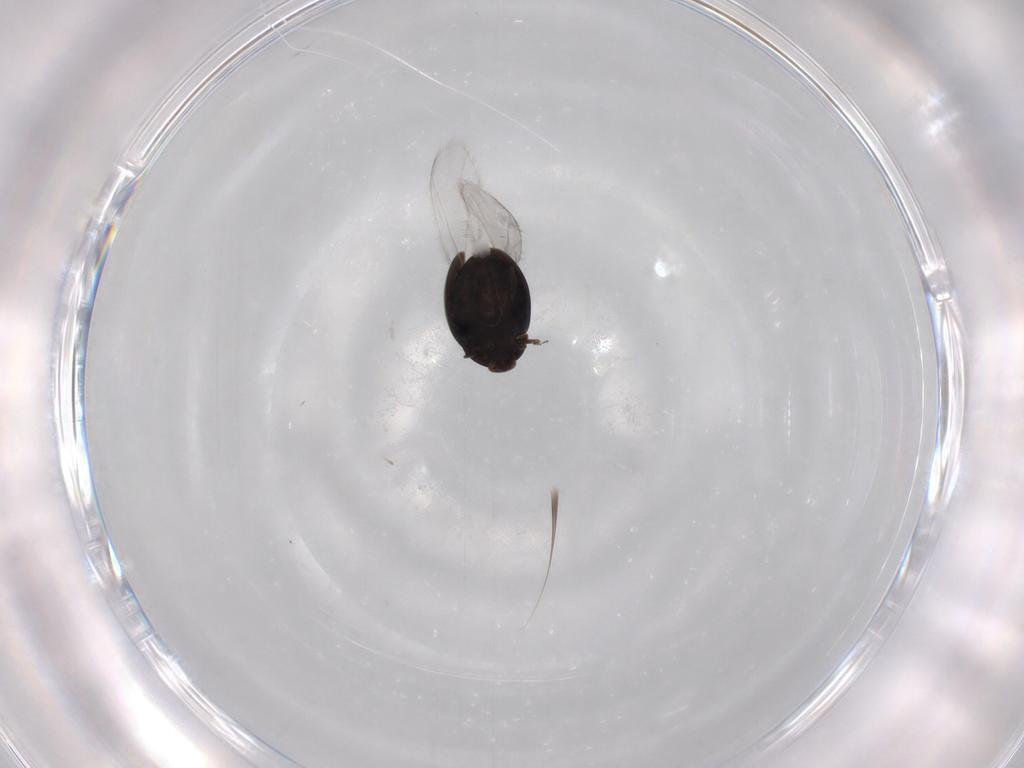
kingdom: Animalia
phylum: Arthropoda
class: Insecta
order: Coleoptera
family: Corylophidae
